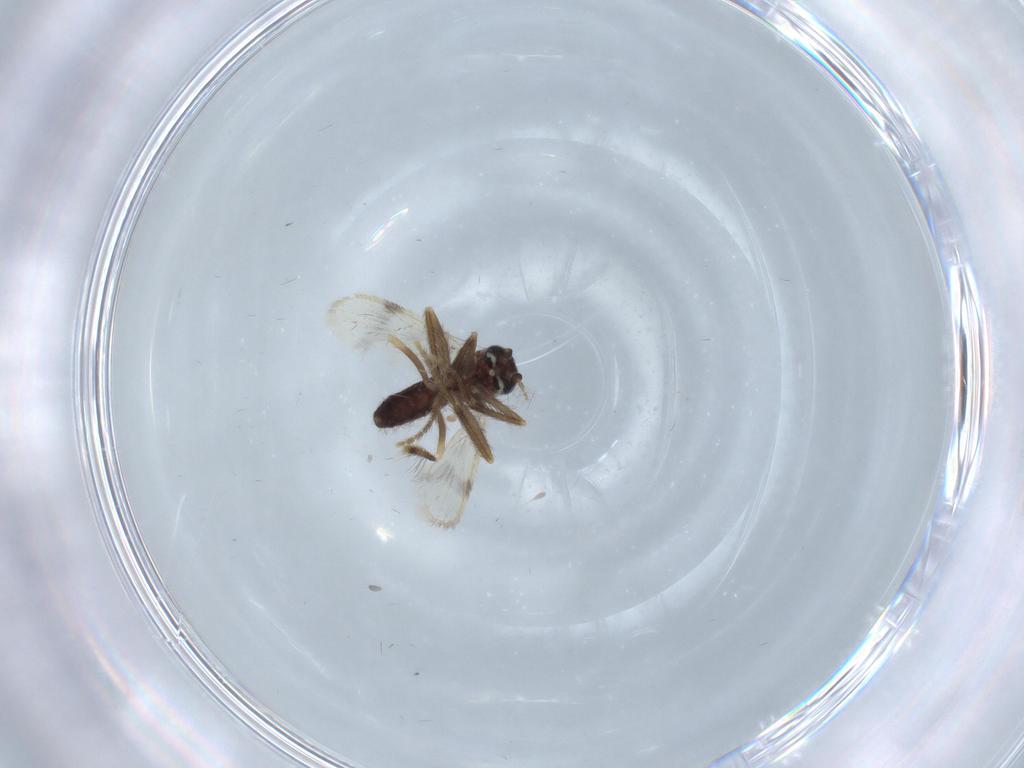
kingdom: Animalia
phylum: Arthropoda
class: Insecta
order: Diptera
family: Corethrellidae
